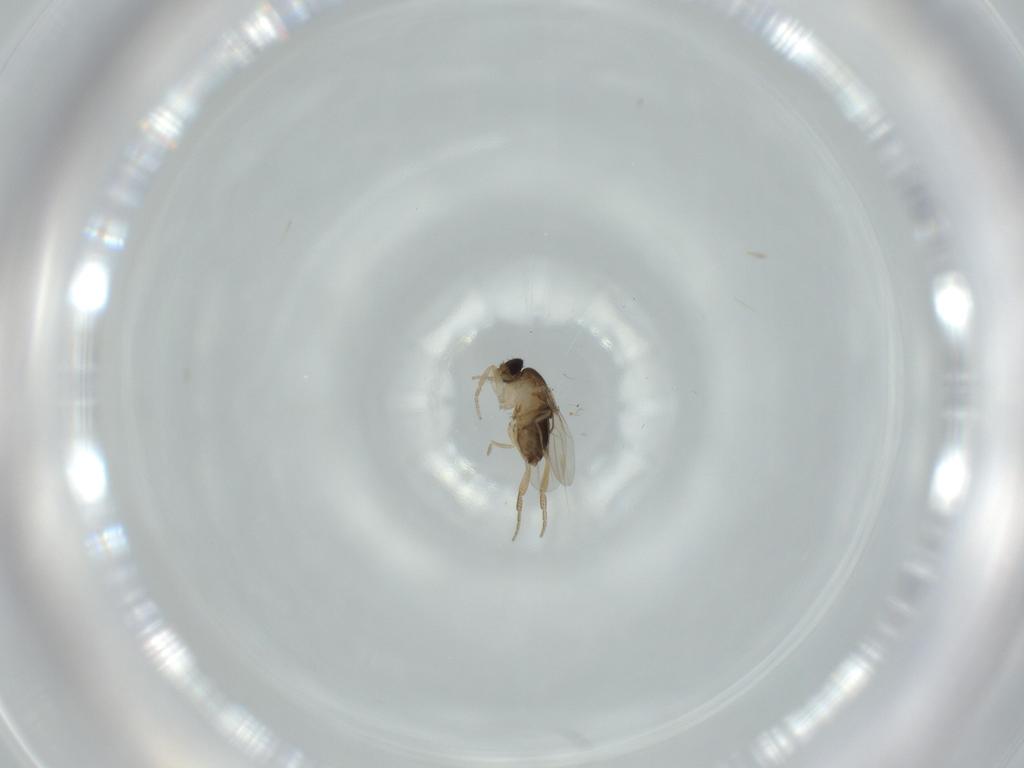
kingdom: Animalia
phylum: Arthropoda
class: Insecta
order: Diptera
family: Phoridae
